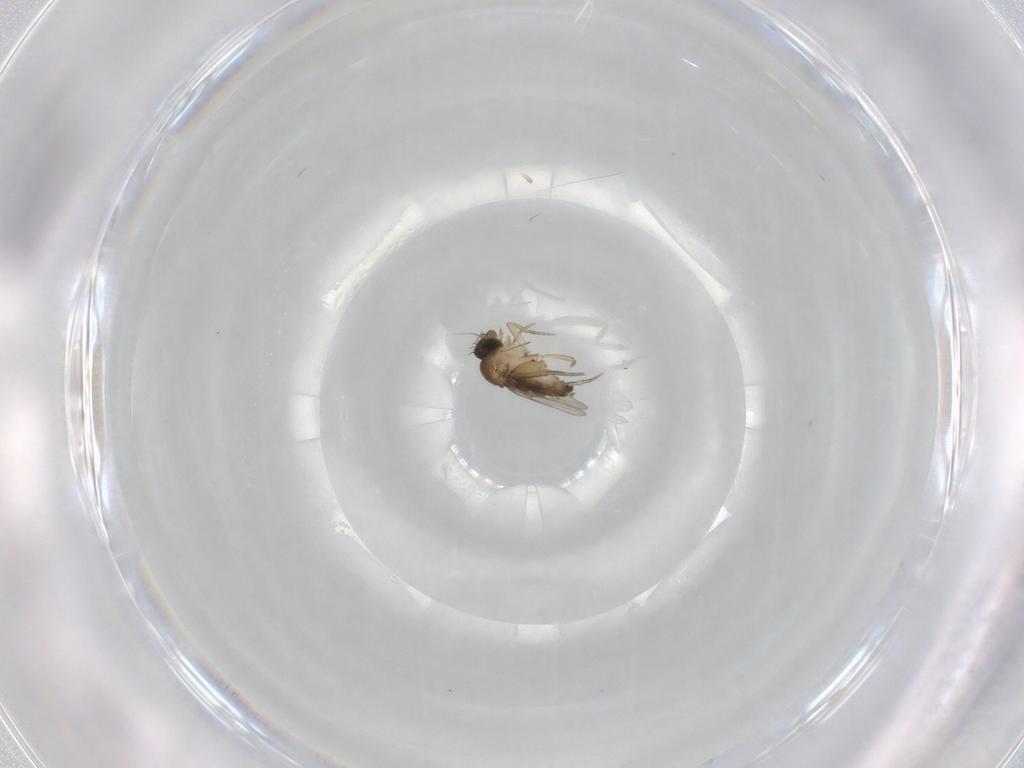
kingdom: Animalia
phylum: Arthropoda
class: Insecta
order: Diptera
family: Phoridae
